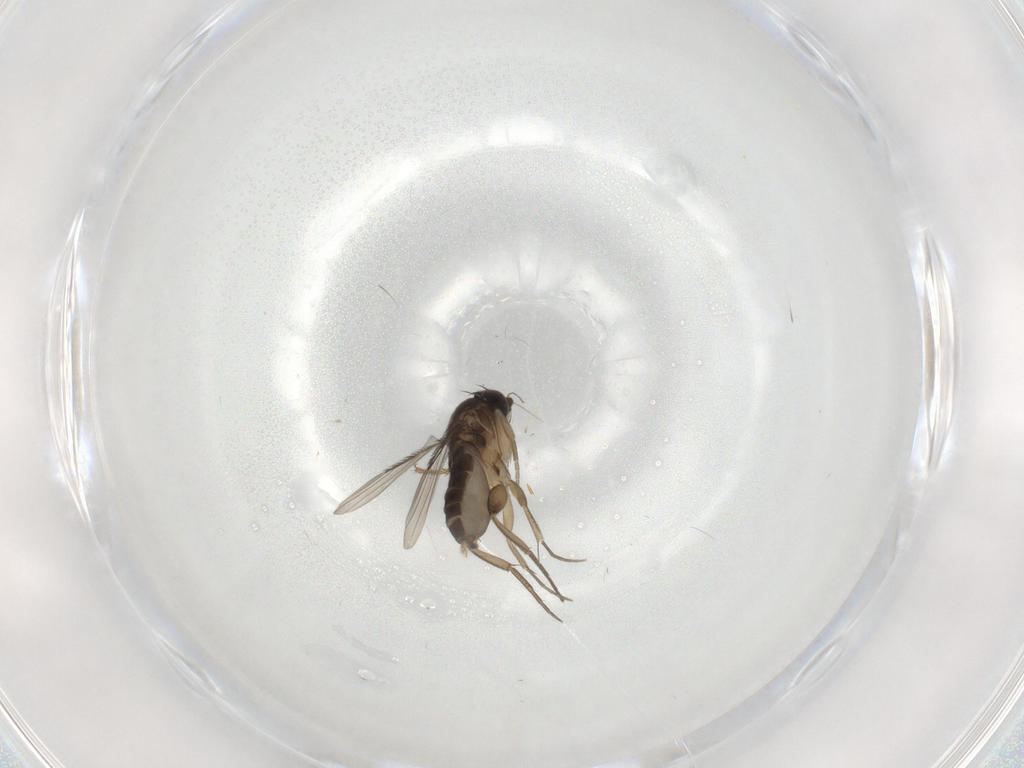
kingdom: Animalia
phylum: Arthropoda
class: Insecta
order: Diptera
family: Phoridae
